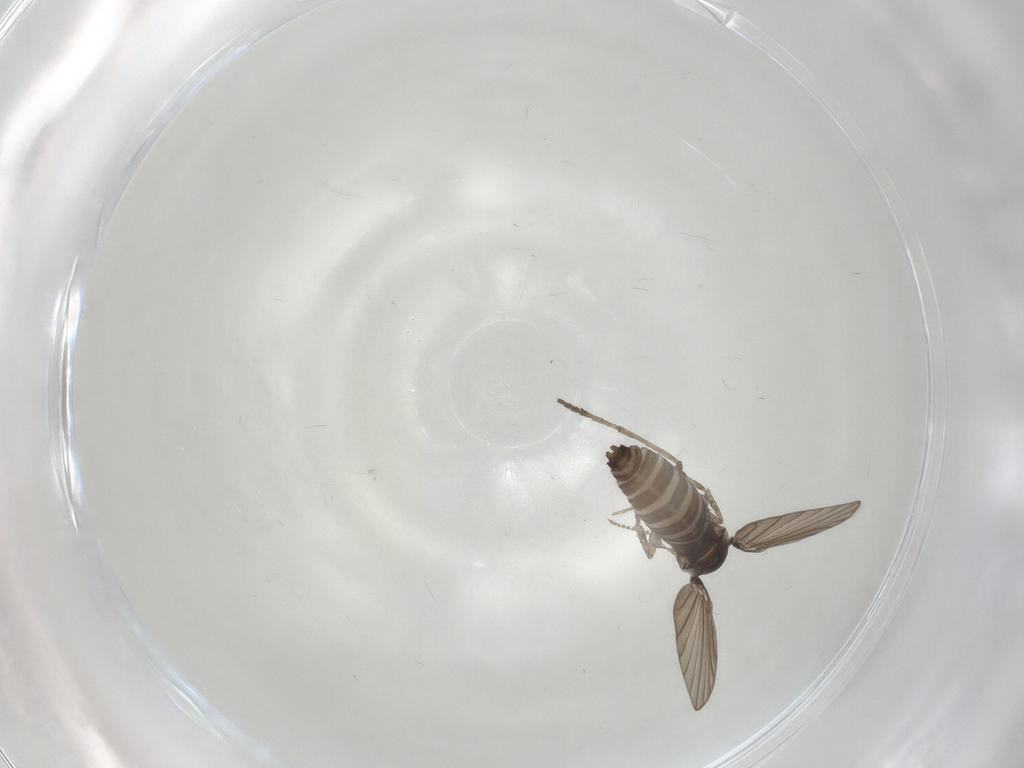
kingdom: Animalia
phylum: Arthropoda
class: Insecta
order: Diptera
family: Psychodidae
